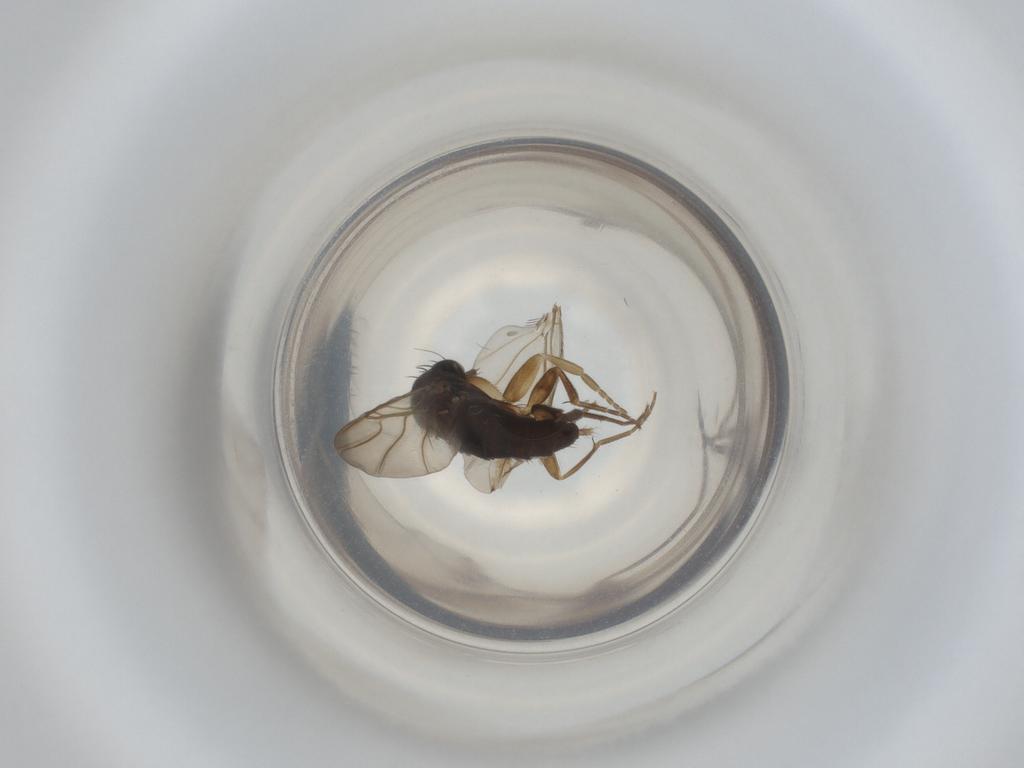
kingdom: Animalia
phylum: Arthropoda
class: Insecta
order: Diptera
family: Phoridae
